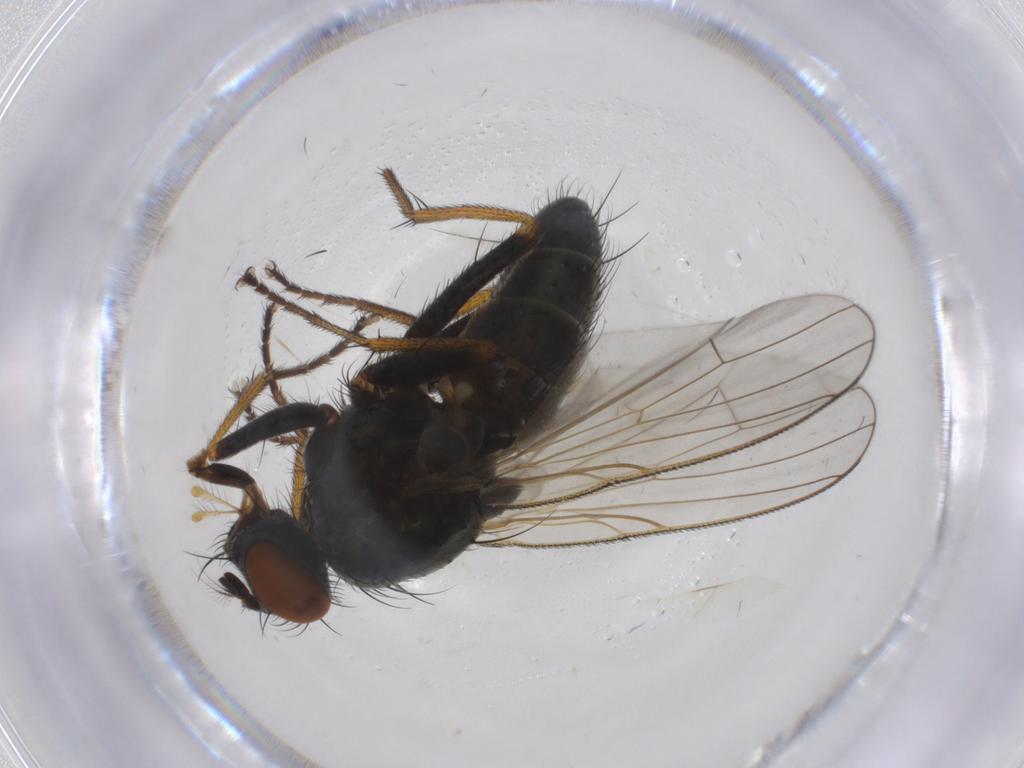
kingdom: Animalia
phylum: Arthropoda
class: Insecta
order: Diptera
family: Mycetophilidae
